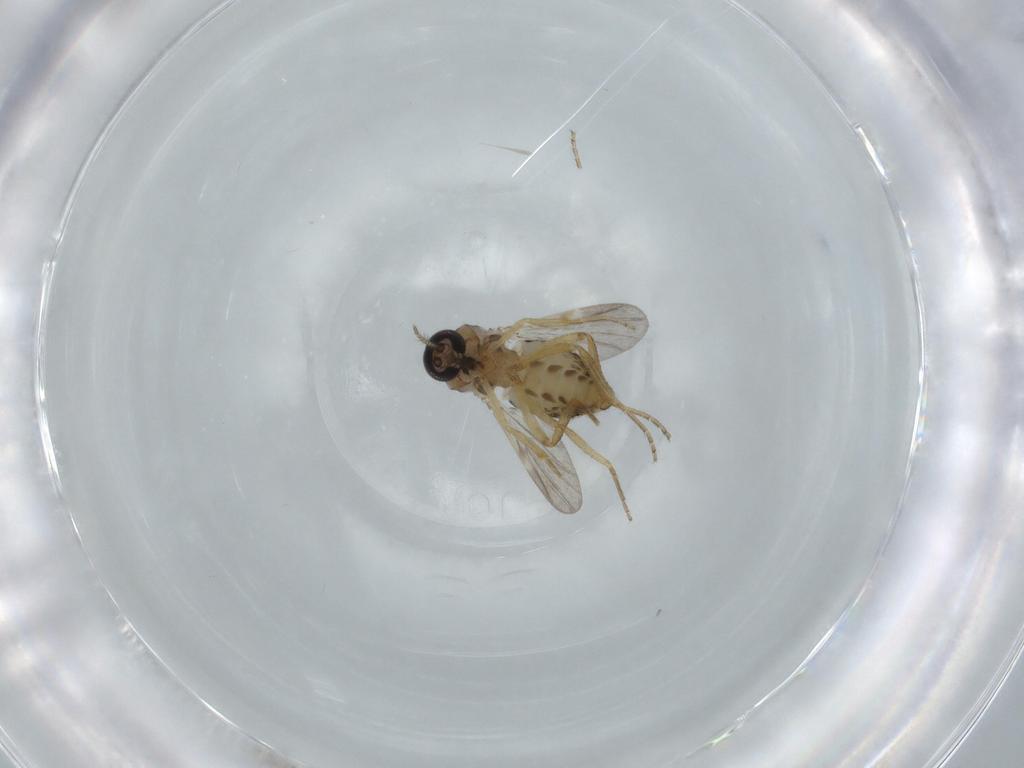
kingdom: Animalia
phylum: Arthropoda
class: Insecta
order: Diptera
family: Ceratopogonidae
